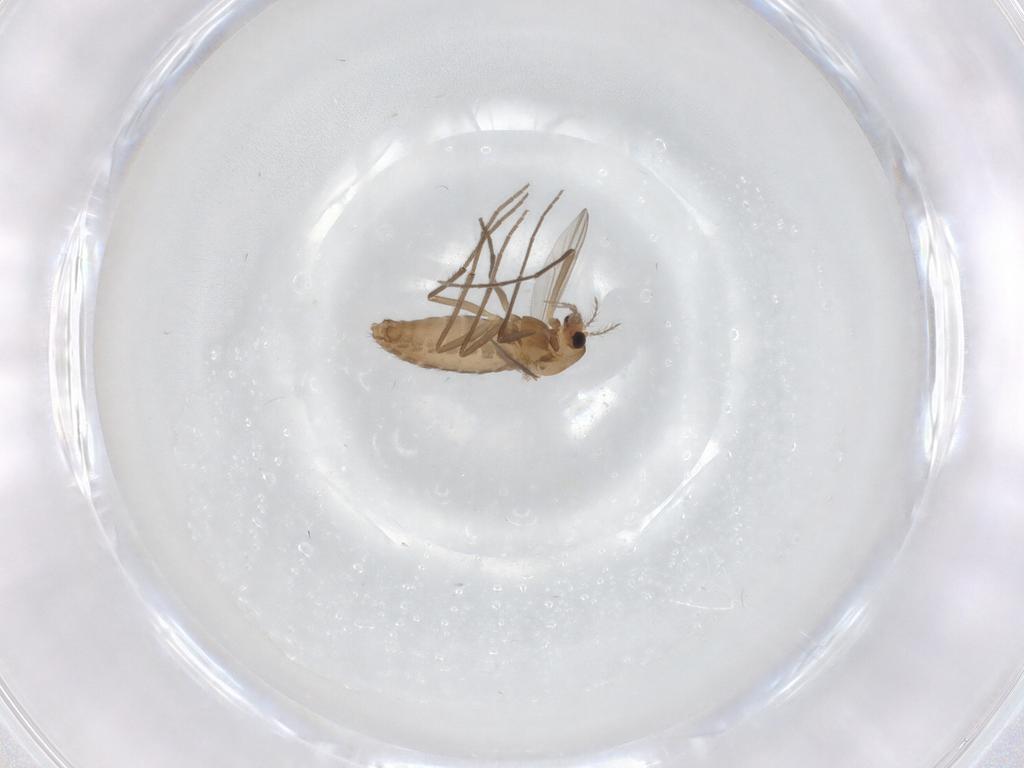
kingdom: Animalia
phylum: Arthropoda
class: Insecta
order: Diptera
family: Chironomidae
